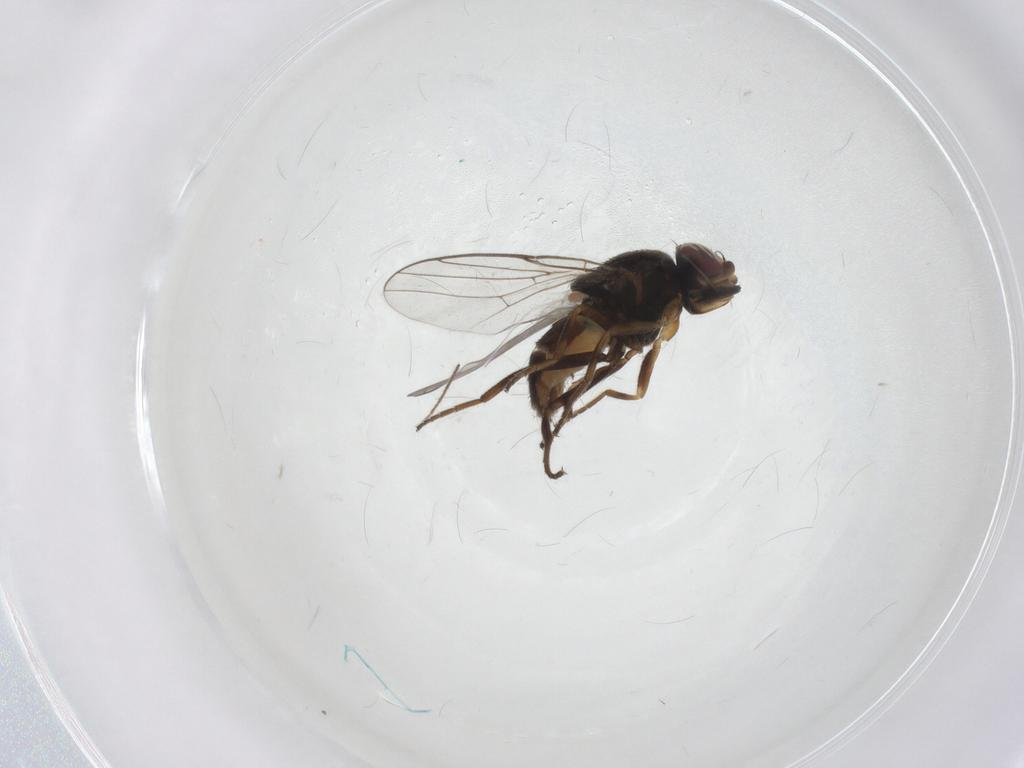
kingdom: Animalia
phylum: Arthropoda
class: Insecta
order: Diptera
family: Chloropidae
